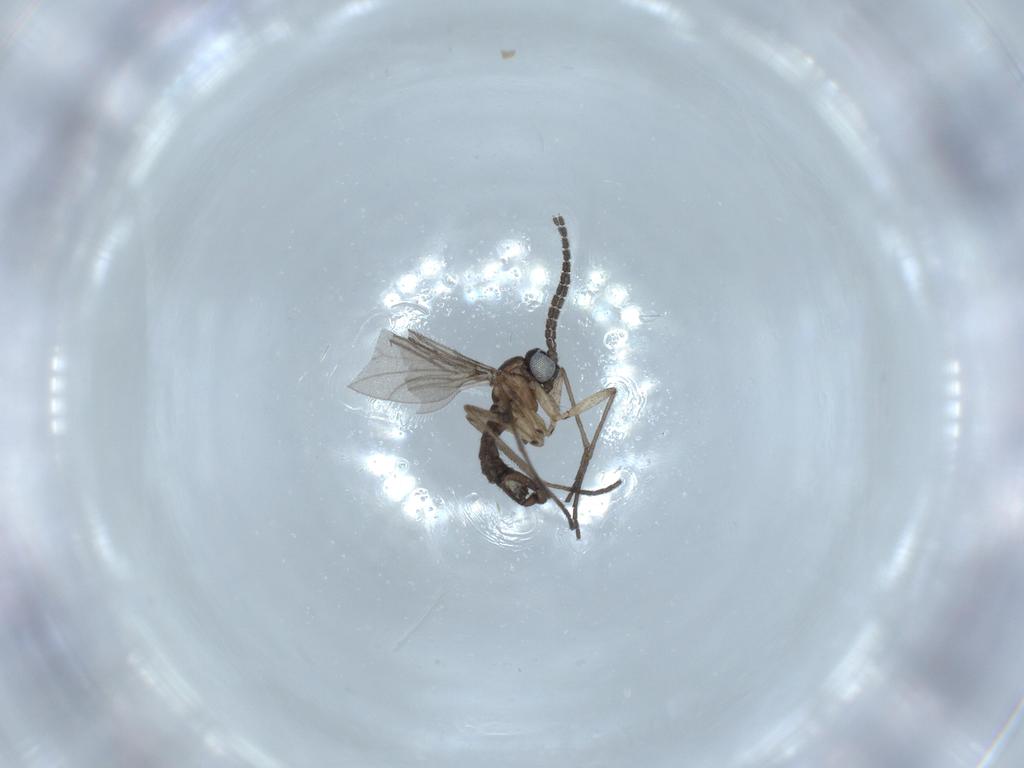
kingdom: Animalia
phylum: Arthropoda
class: Insecta
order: Diptera
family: Sciaridae
